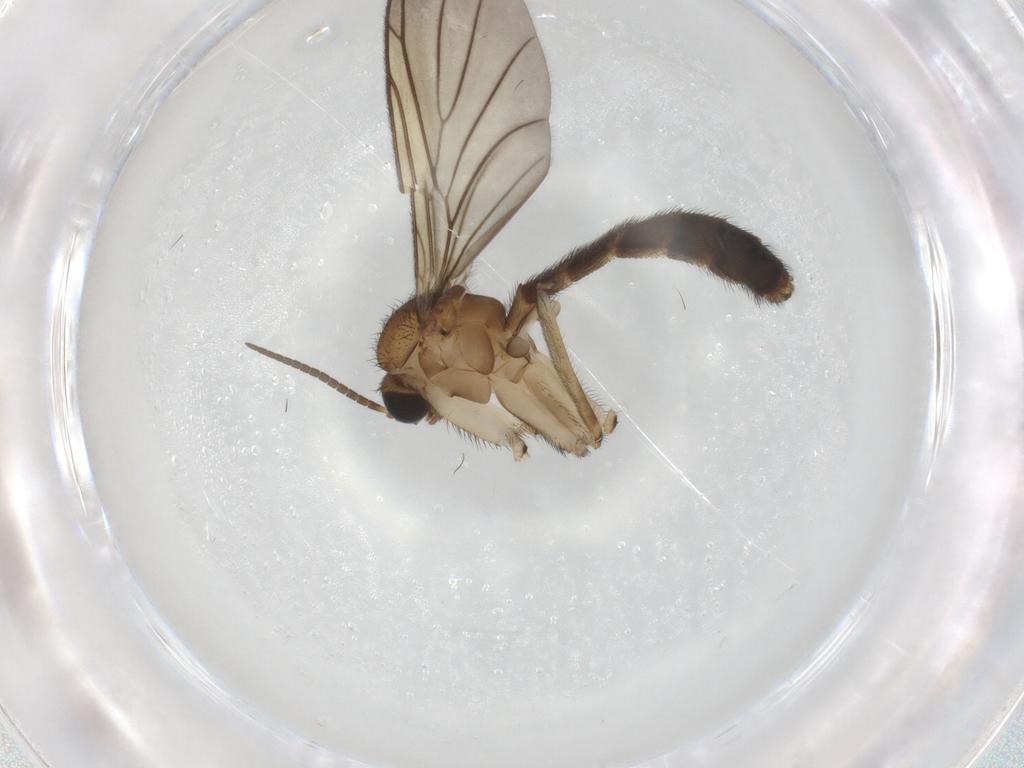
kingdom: Animalia
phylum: Arthropoda
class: Insecta
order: Diptera
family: Keroplatidae
